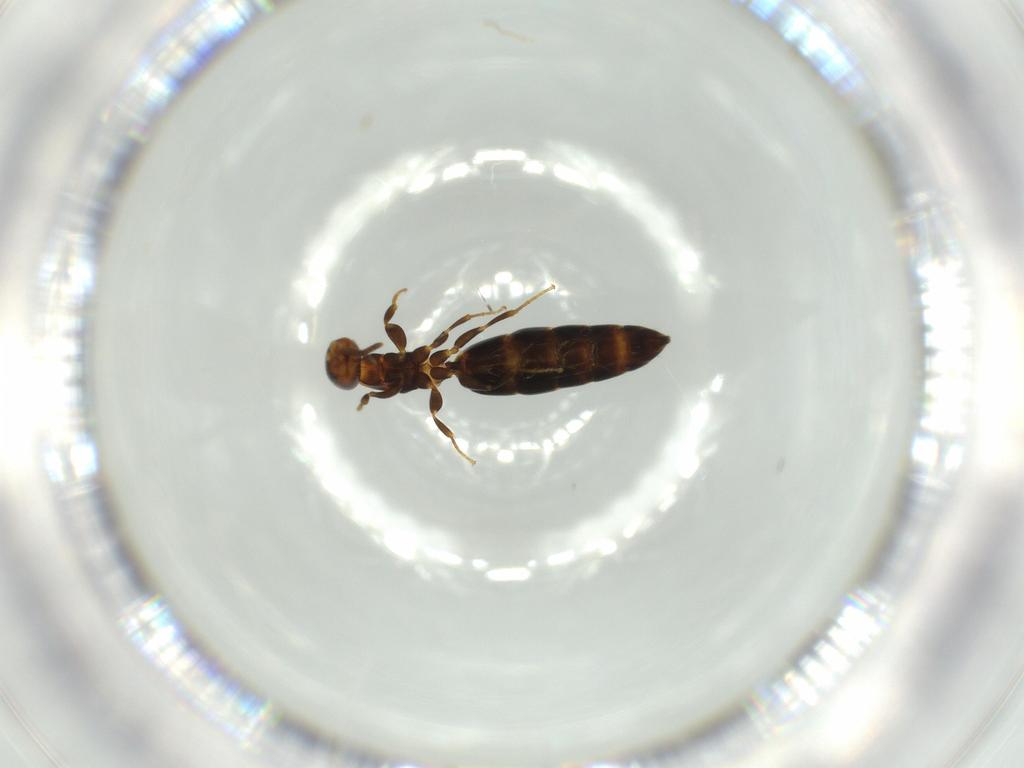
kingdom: Animalia
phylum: Arthropoda
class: Insecta
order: Hymenoptera
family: Bethylidae
